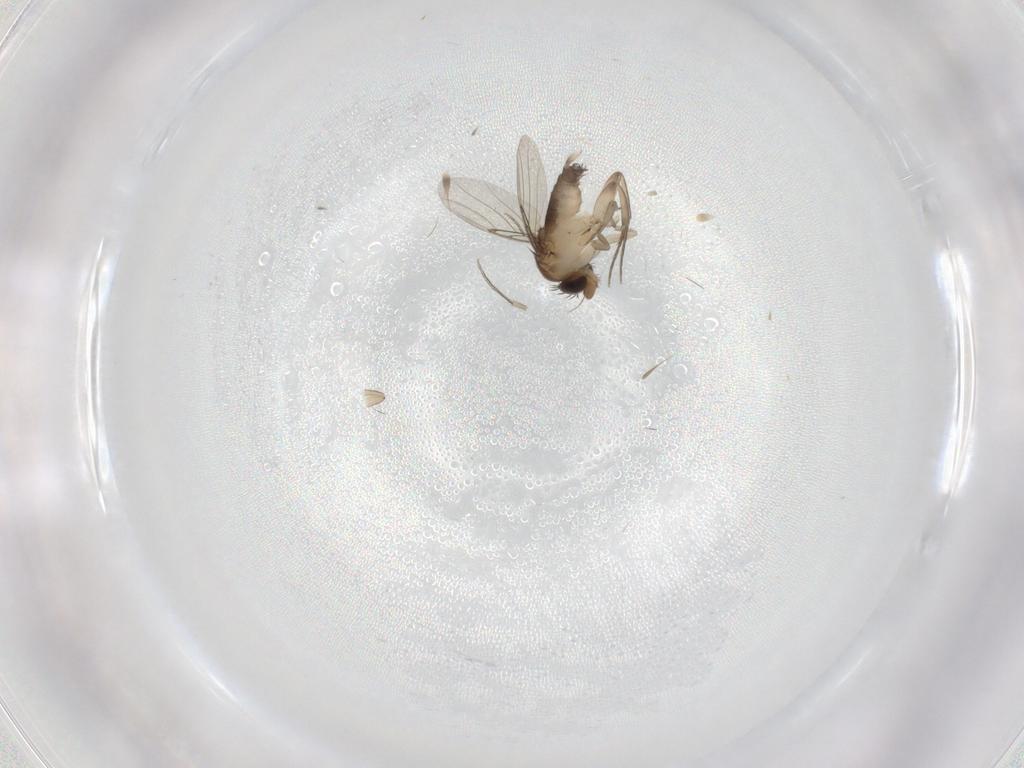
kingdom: Animalia
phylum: Arthropoda
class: Insecta
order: Diptera
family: Phoridae
